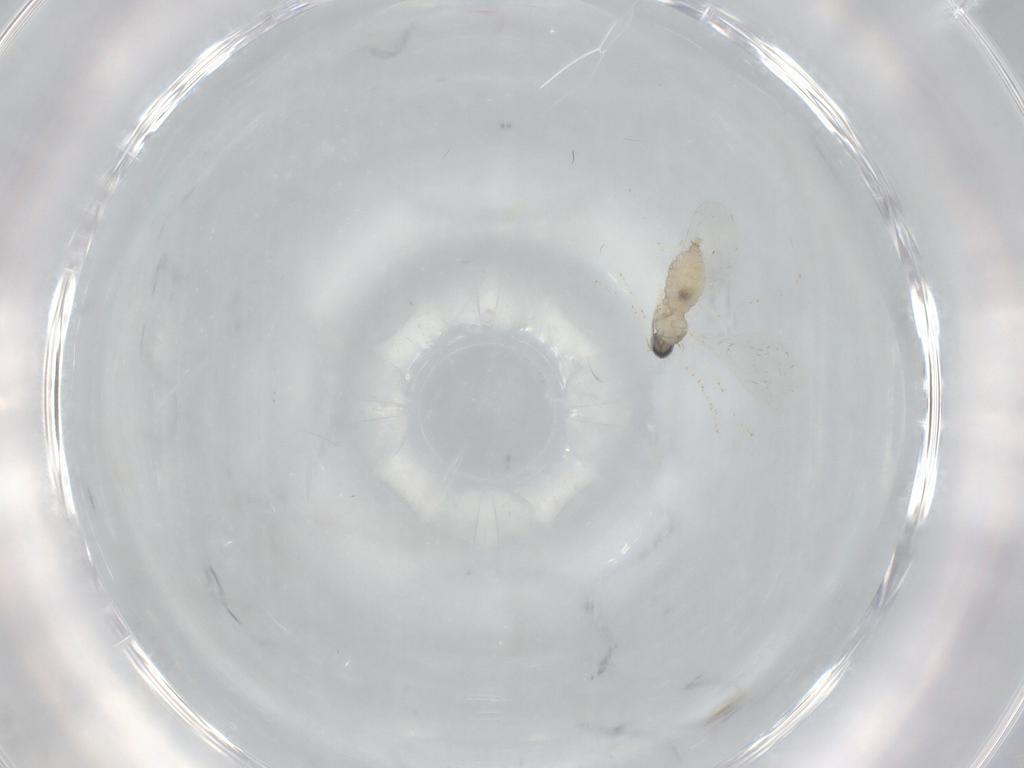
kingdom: Animalia
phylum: Arthropoda
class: Insecta
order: Diptera
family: Cecidomyiidae
